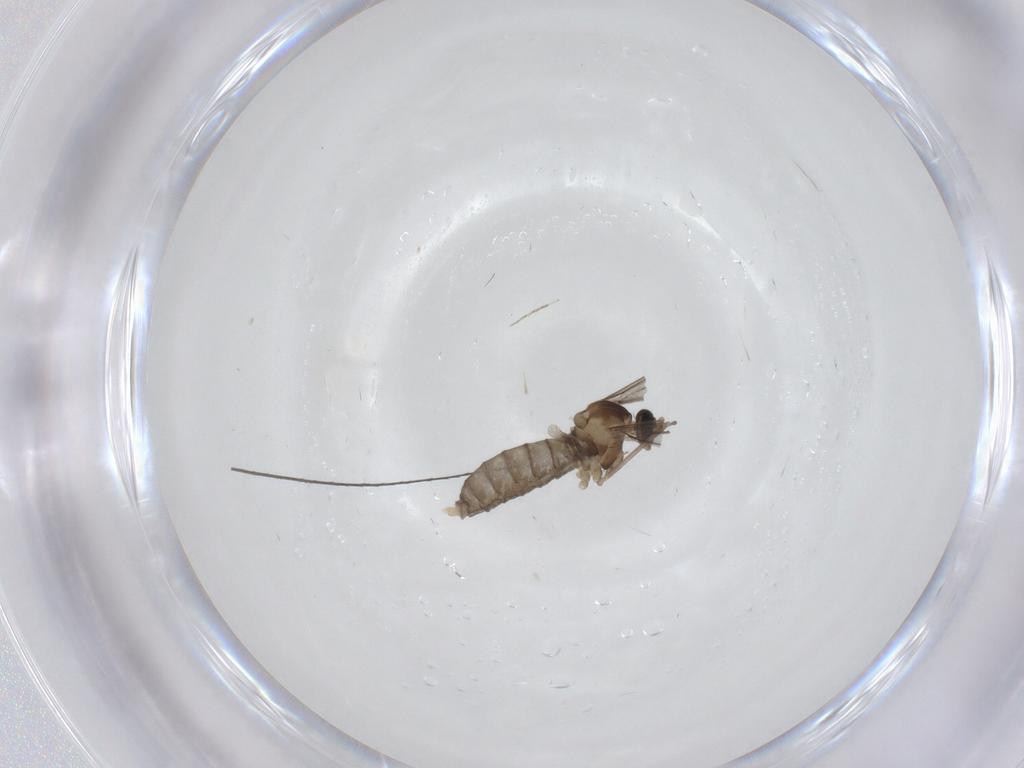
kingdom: Animalia
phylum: Arthropoda
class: Insecta
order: Diptera
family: Cecidomyiidae
